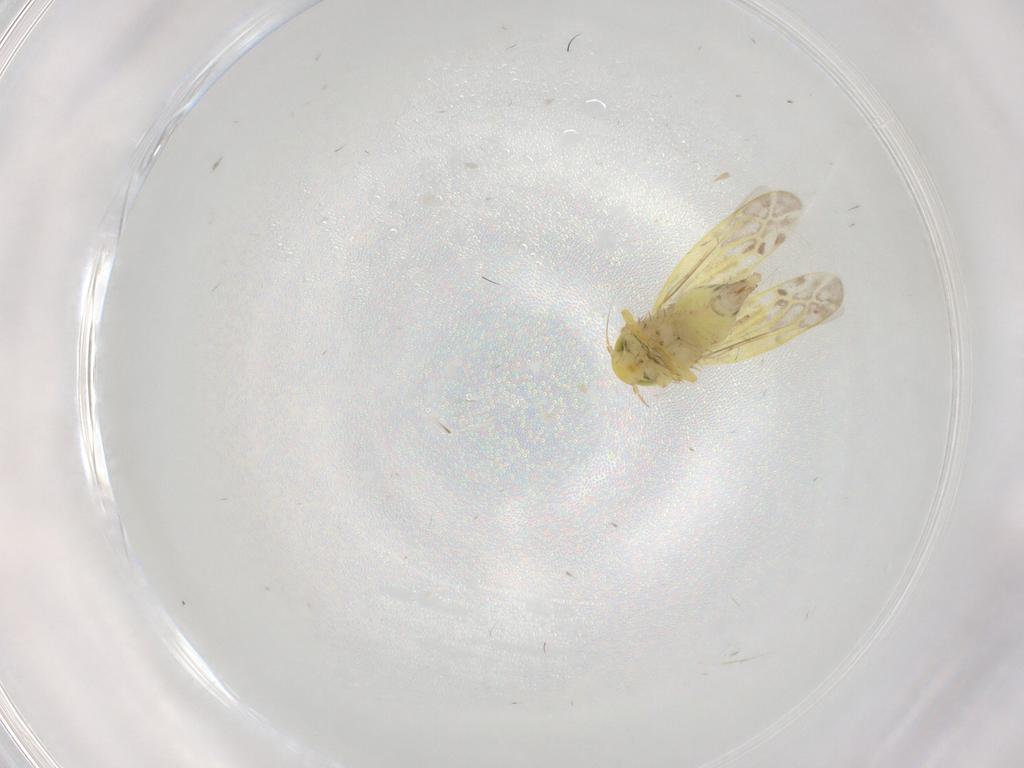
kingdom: Animalia
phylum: Arthropoda
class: Insecta
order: Hemiptera
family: Cicadellidae
